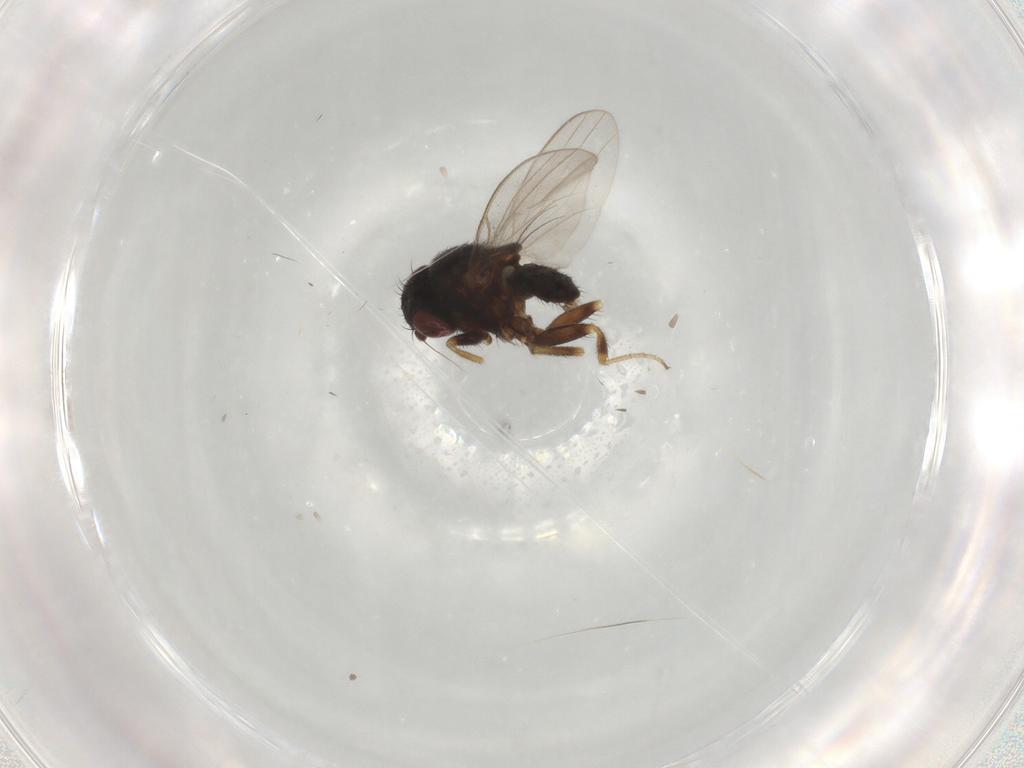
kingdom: Animalia
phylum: Arthropoda
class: Insecta
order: Diptera
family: Milichiidae
